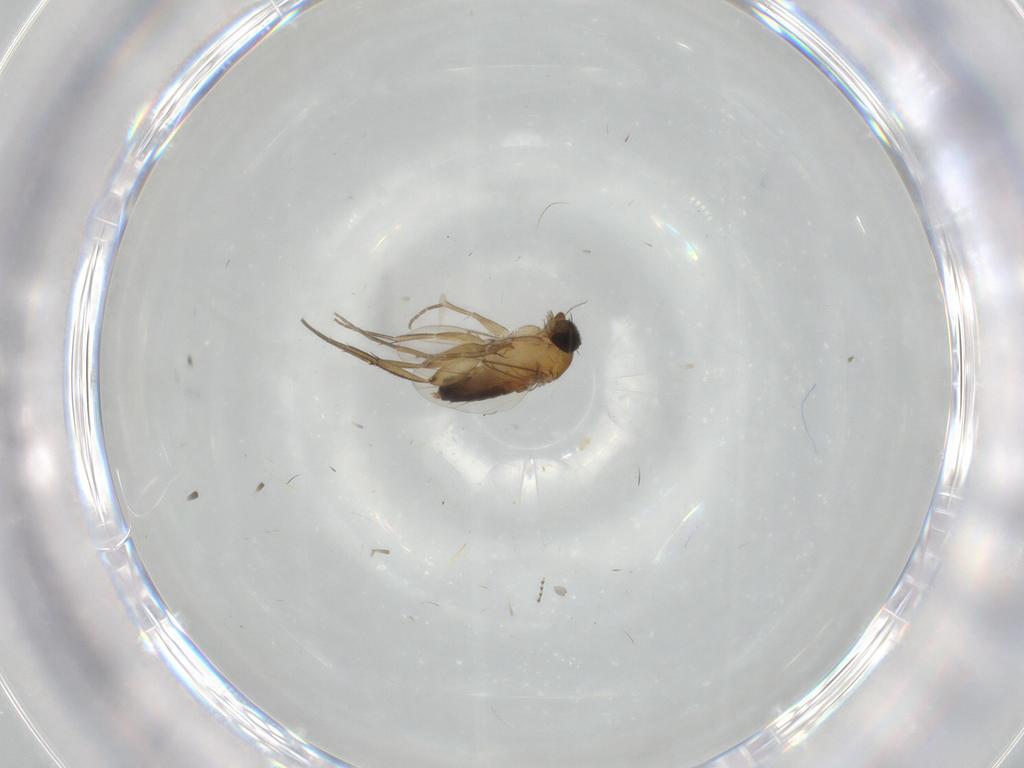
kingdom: Animalia
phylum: Arthropoda
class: Insecta
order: Diptera
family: Phoridae
